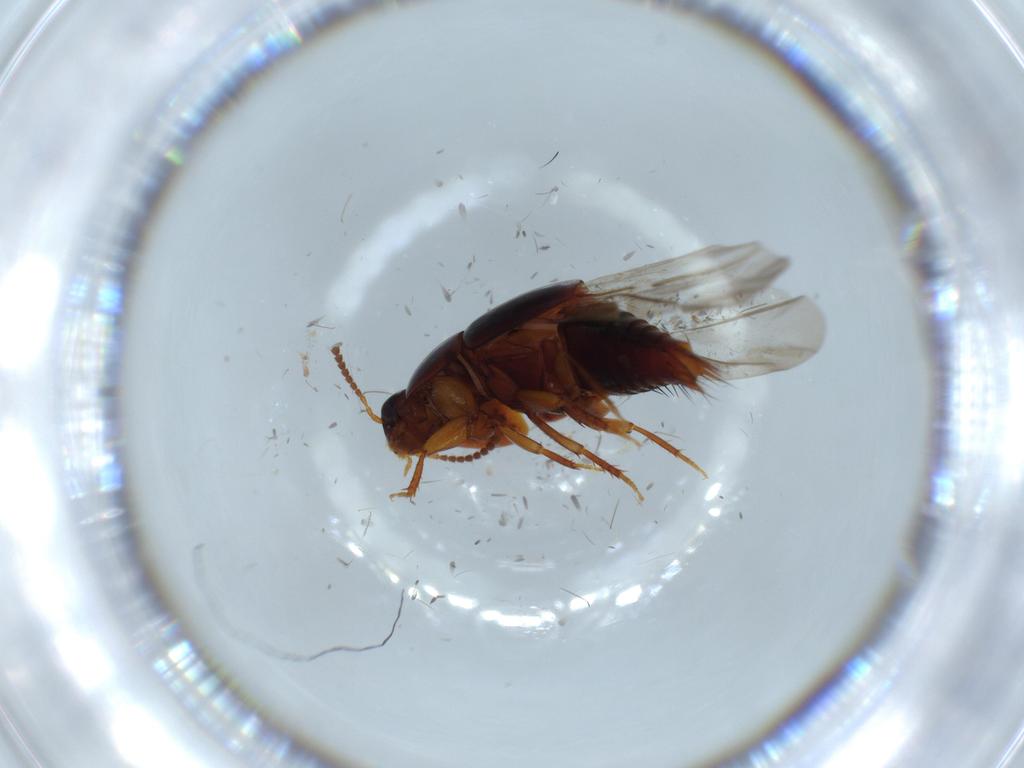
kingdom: Animalia
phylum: Arthropoda
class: Insecta
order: Coleoptera
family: Staphylinidae
